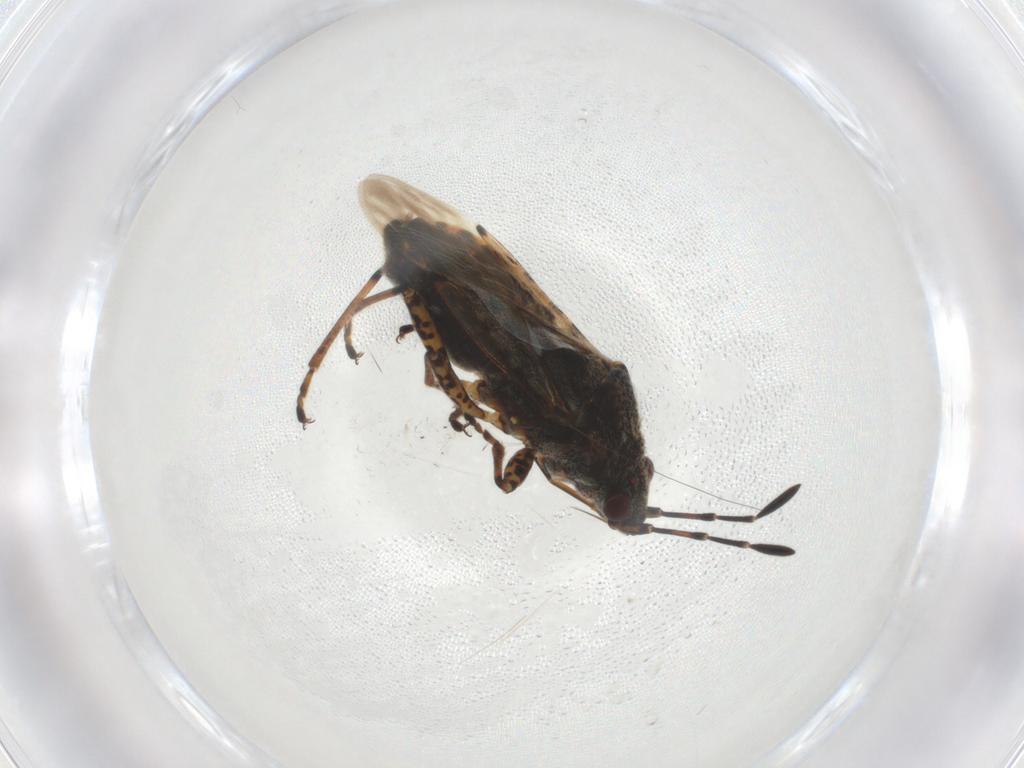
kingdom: Animalia
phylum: Arthropoda
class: Insecta
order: Hemiptera
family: Lygaeidae
